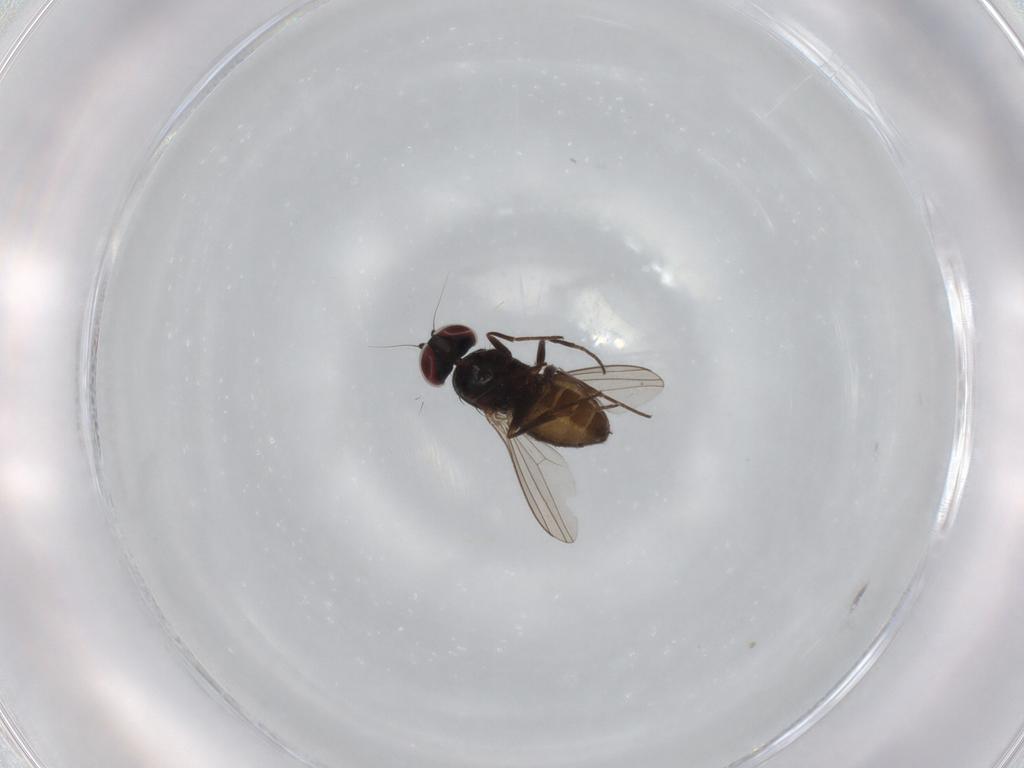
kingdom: Animalia
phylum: Arthropoda
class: Insecta
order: Diptera
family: Dolichopodidae
